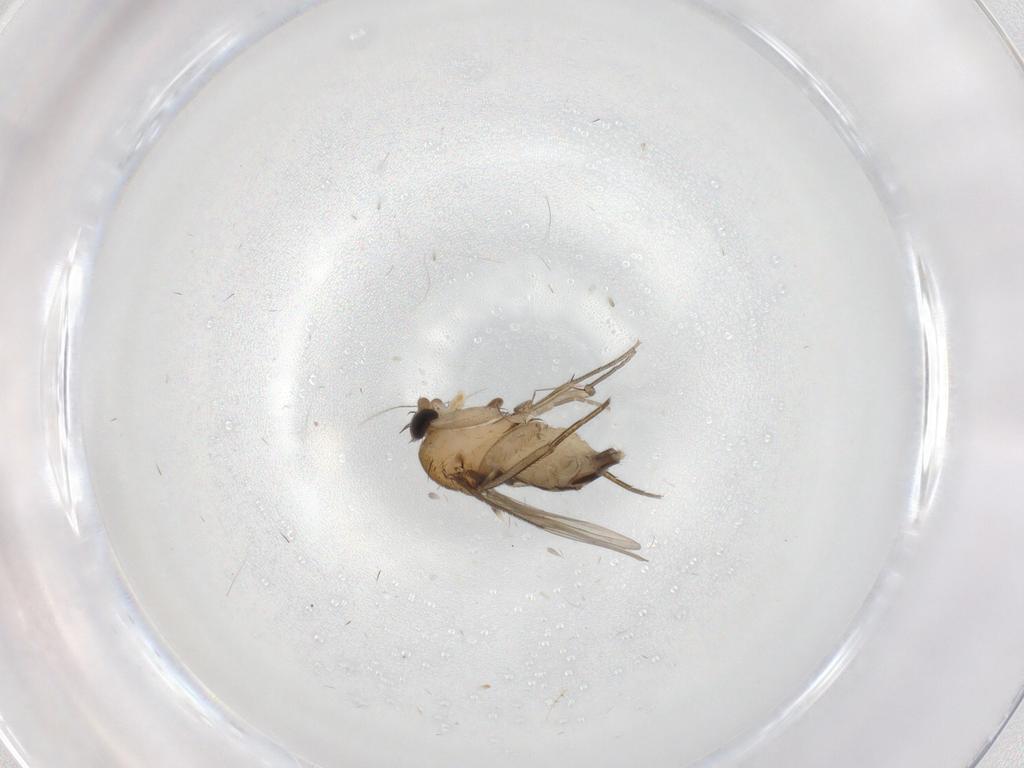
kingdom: Animalia
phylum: Arthropoda
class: Insecta
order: Diptera
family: Phoridae
